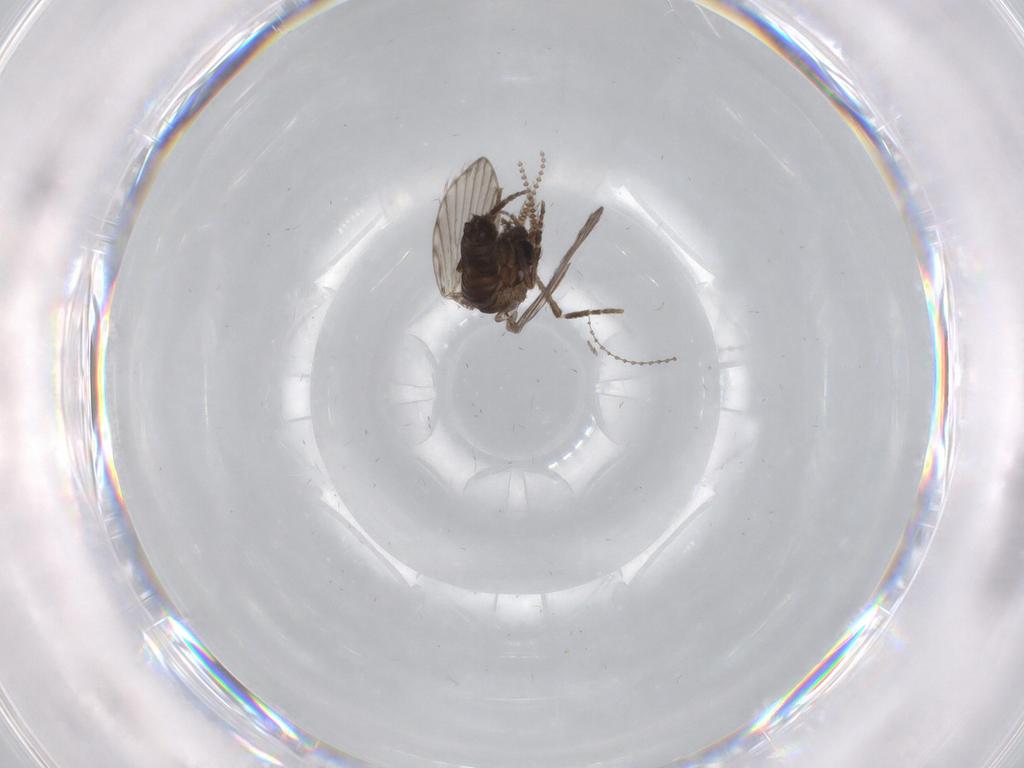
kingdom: Animalia
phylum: Arthropoda
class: Insecta
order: Diptera
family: Chironomidae
